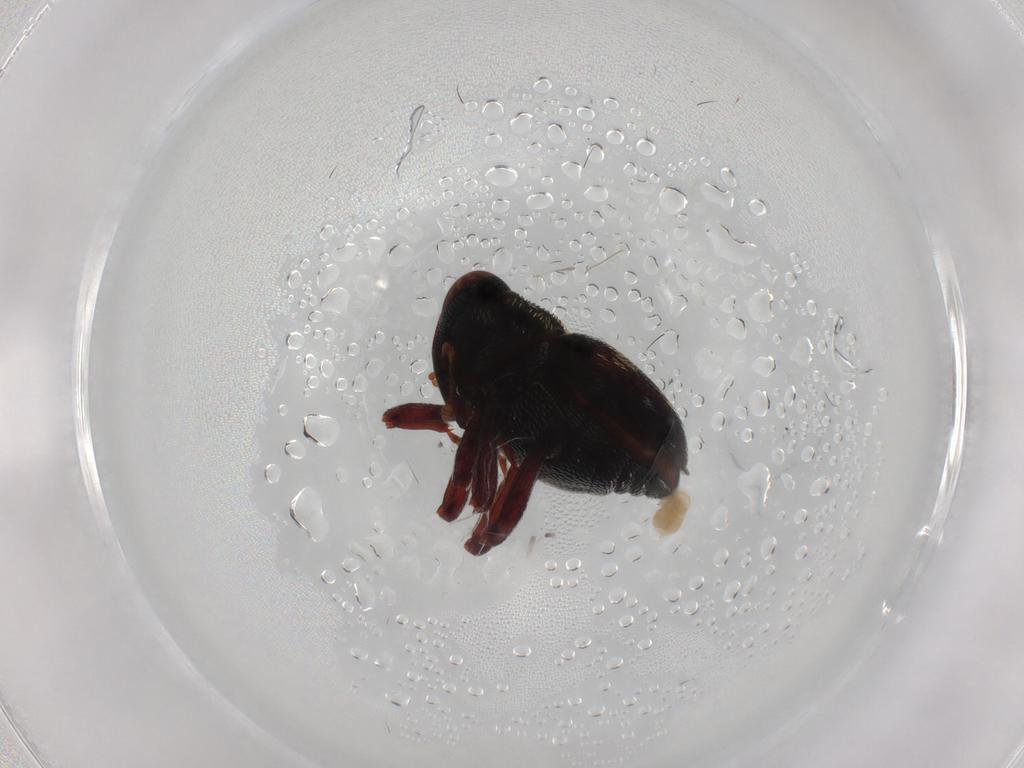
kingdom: Animalia
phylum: Arthropoda
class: Insecta
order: Coleoptera
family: Curculionidae
